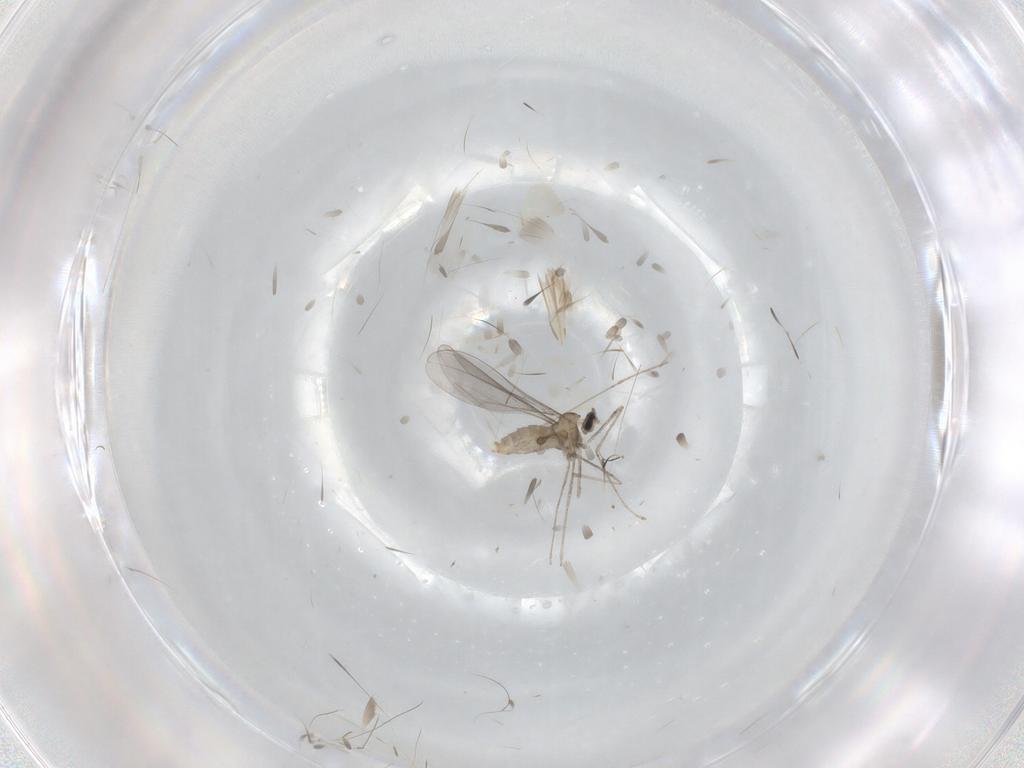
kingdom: Animalia
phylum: Arthropoda
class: Insecta
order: Diptera
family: Cecidomyiidae
